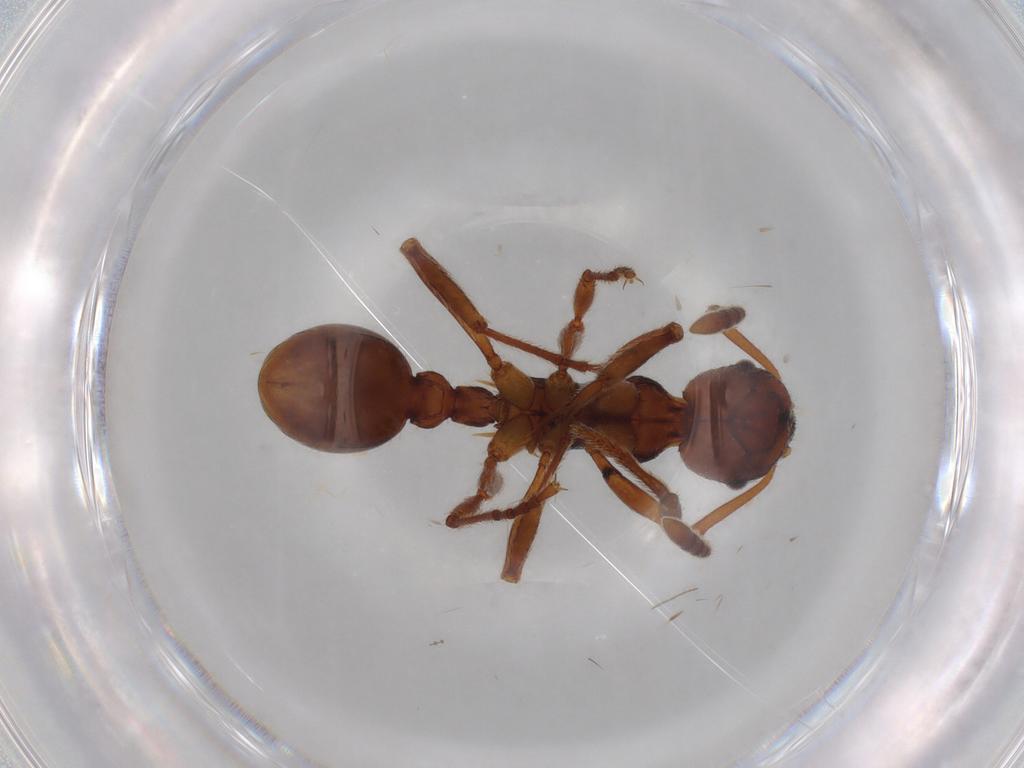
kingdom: Animalia
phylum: Arthropoda
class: Insecta
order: Hymenoptera
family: Formicidae
